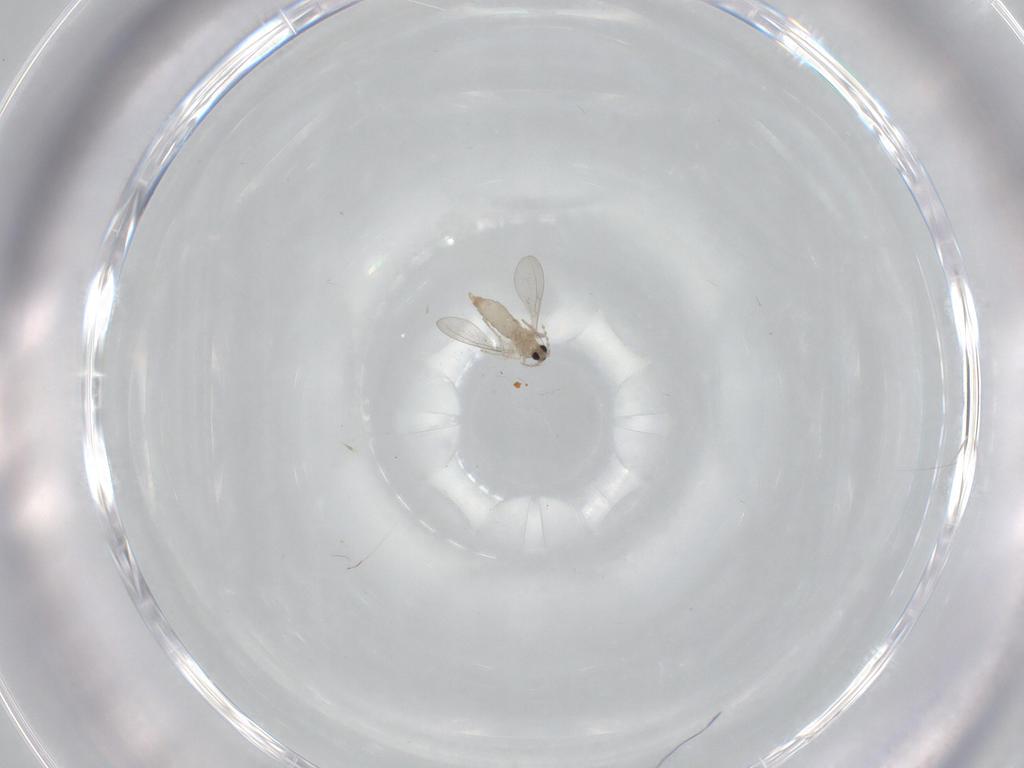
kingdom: Animalia
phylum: Arthropoda
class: Insecta
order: Diptera
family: Cecidomyiidae
